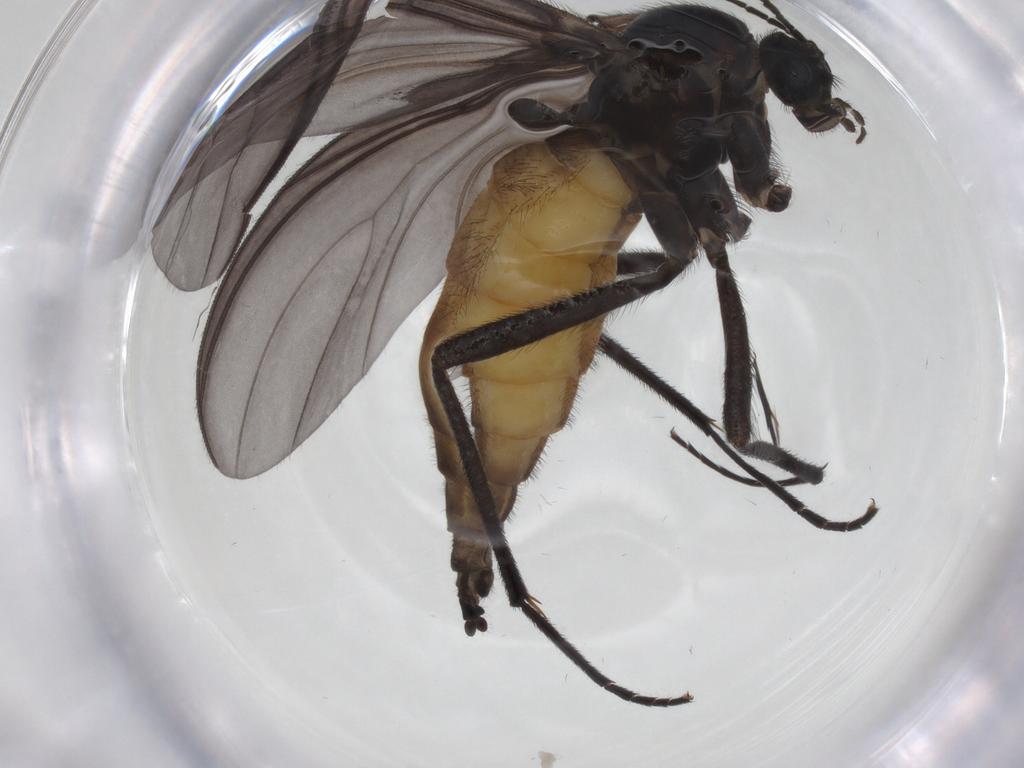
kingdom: Animalia
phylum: Arthropoda
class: Insecta
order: Diptera
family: Sciaridae
